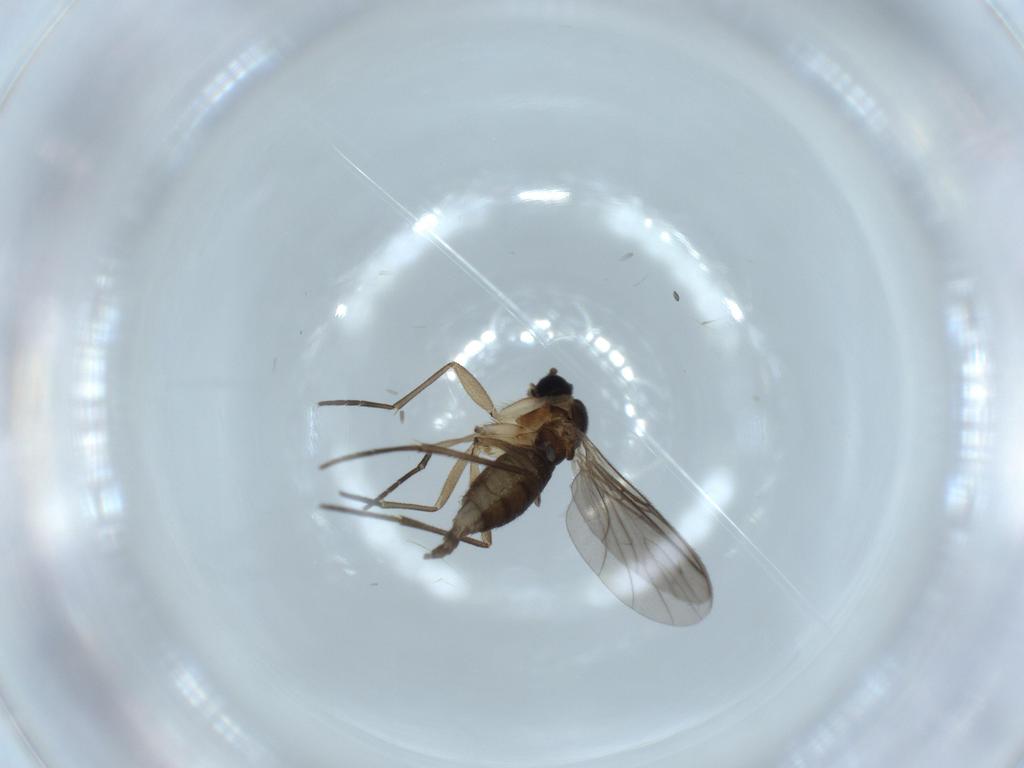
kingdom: Animalia
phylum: Arthropoda
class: Insecta
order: Diptera
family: Sciaridae
